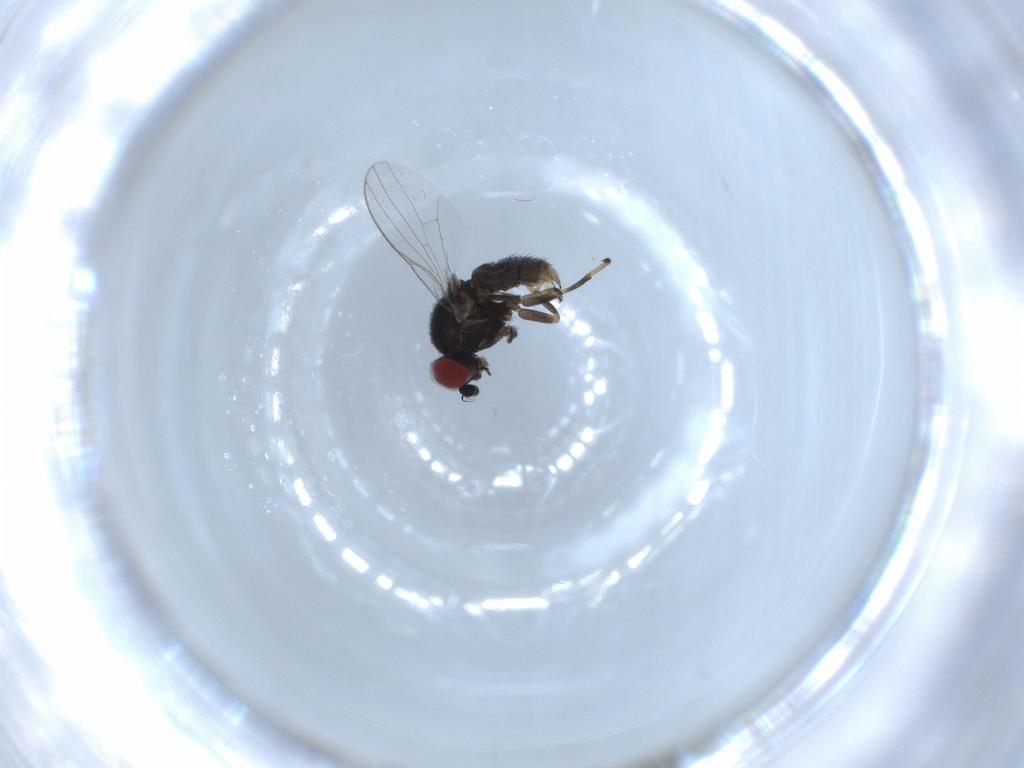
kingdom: Animalia
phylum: Arthropoda
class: Insecta
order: Diptera
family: Chamaemyiidae
